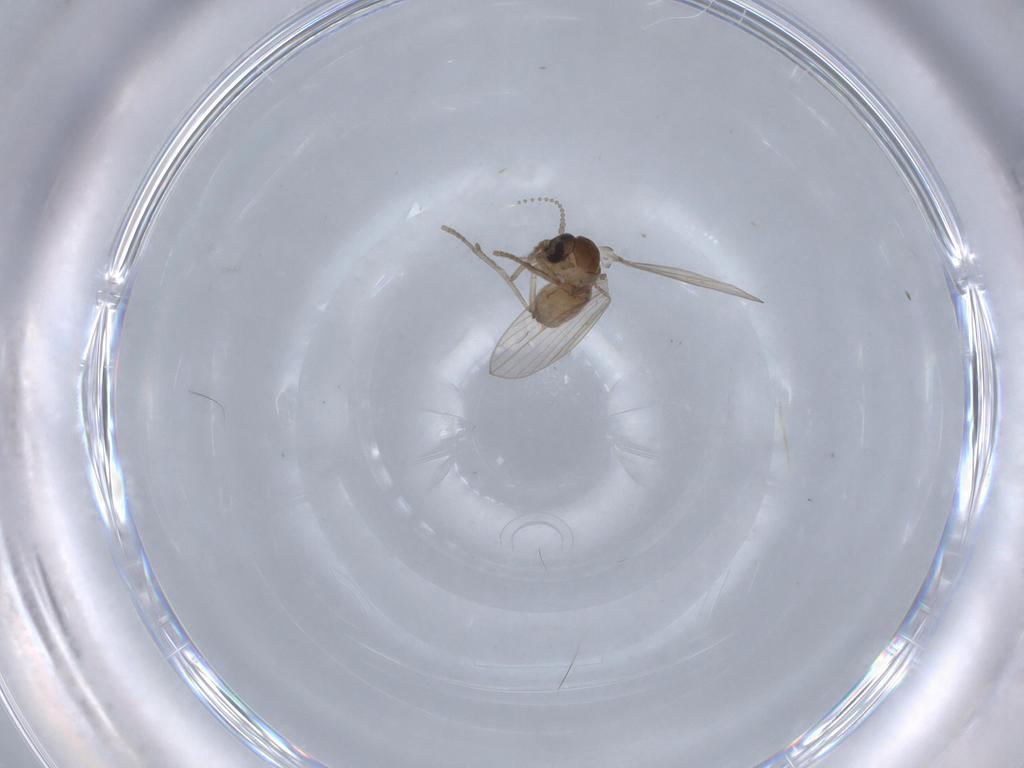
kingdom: Animalia
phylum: Arthropoda
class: Insecta
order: Diptera
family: Psychodidae
